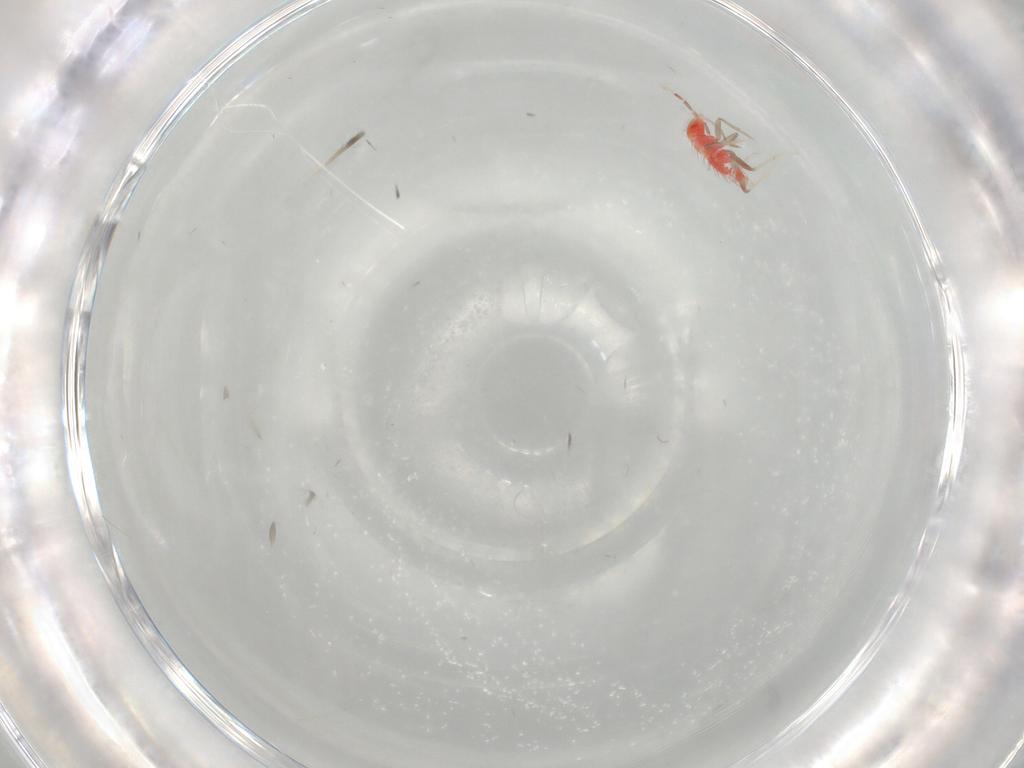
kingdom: Animalia
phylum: Arthropoda
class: Insecta
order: Hemiptera
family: Miridae
